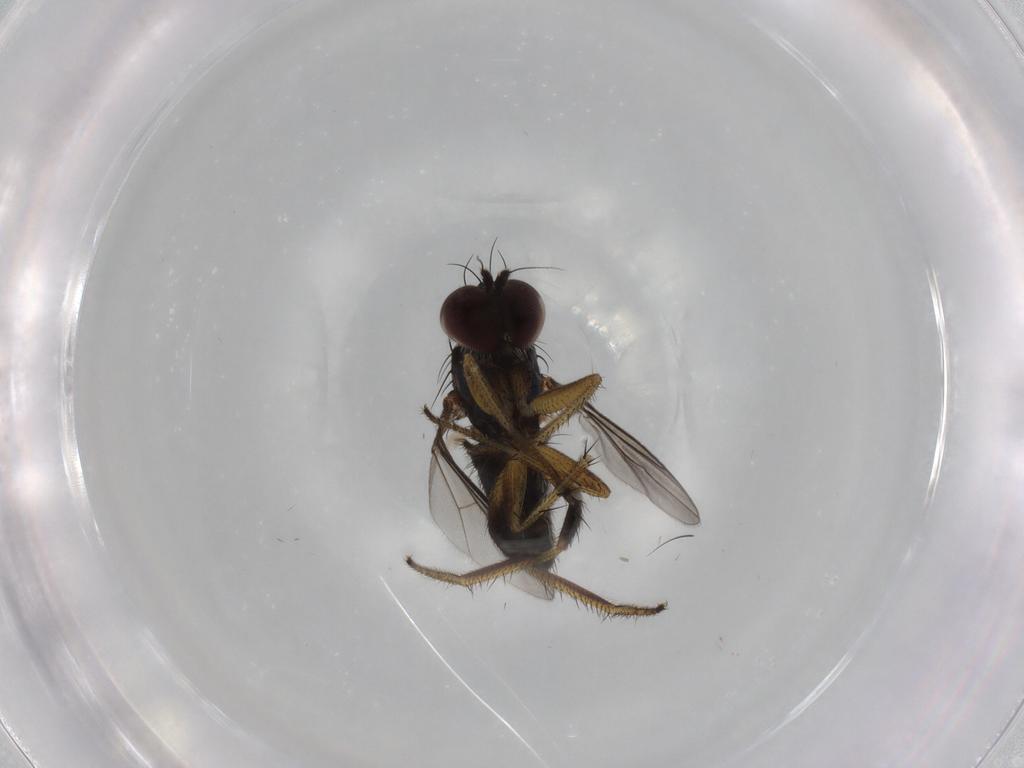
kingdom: Animalia
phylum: Arthropoda
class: Insecta
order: Diptera
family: Dolichopodidae
